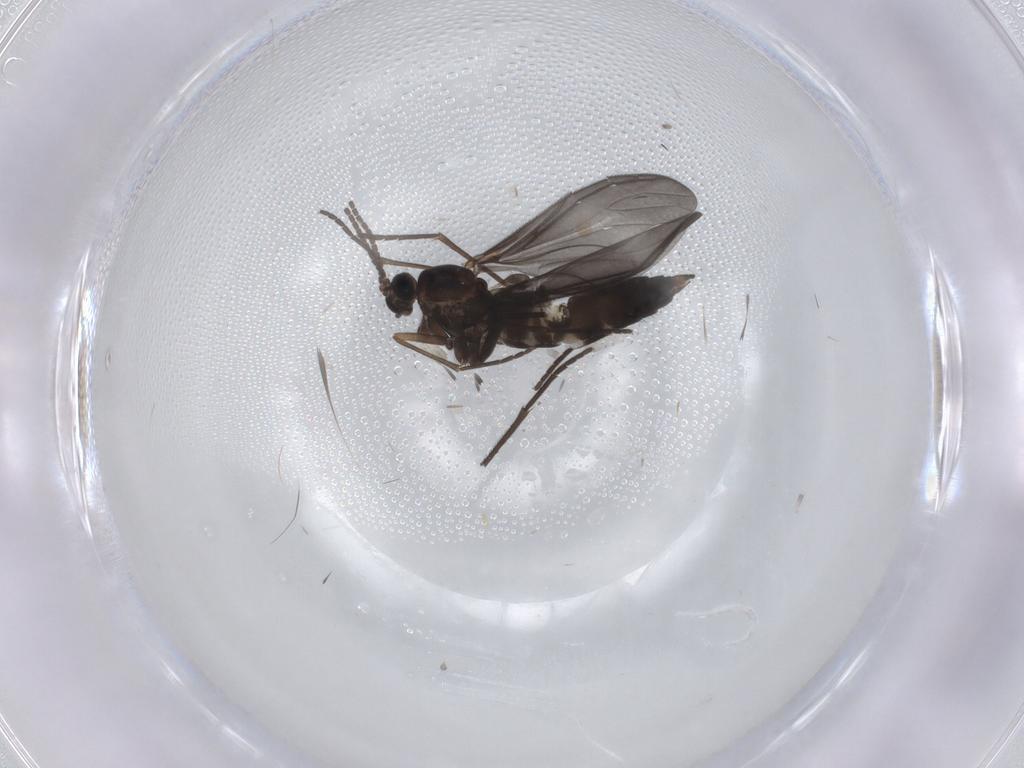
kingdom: Animalia
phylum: Arthropoda
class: Insecta
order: Diptera
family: Sciaridae
